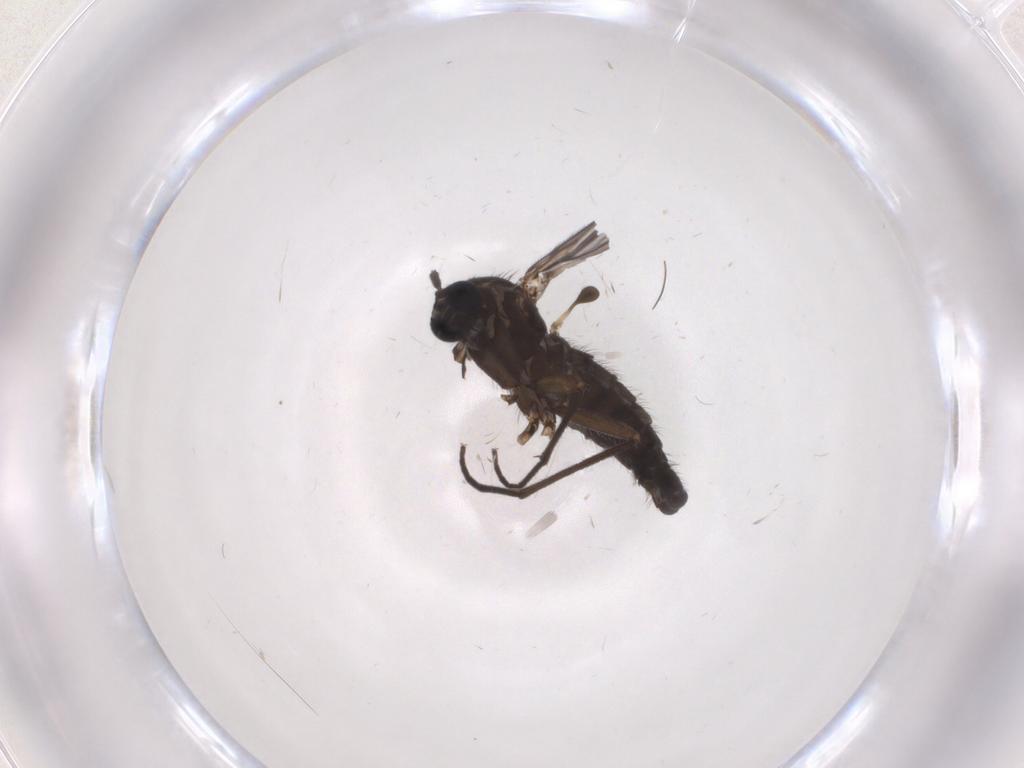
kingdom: Animalia
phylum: Arthropoda
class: Insecta
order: Diptera
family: Sciaridae
